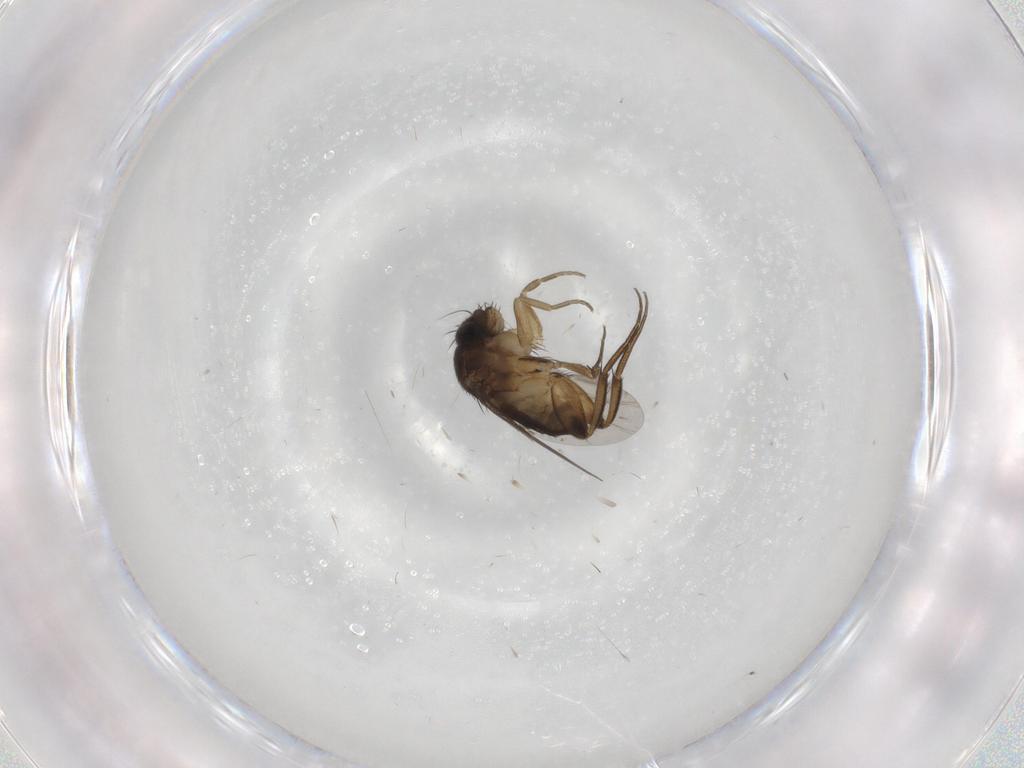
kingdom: Animalia
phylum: Arthropoda
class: Insecta
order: Diptera
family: Phoridae
